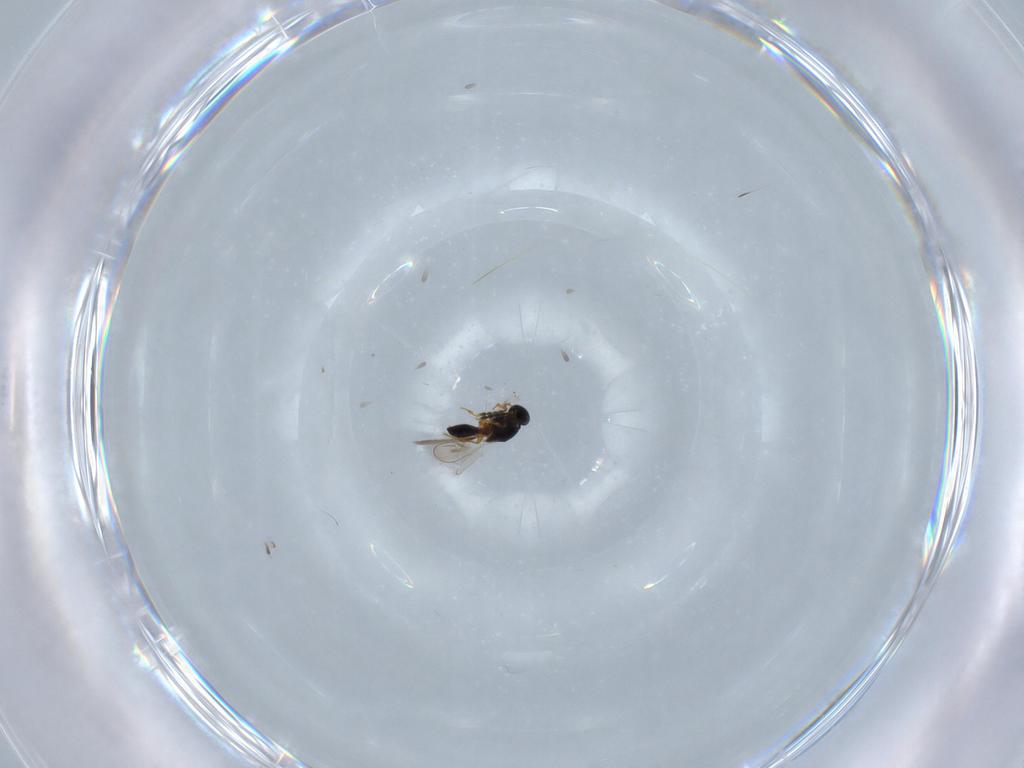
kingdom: Animalia
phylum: Arthropoda
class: Insecta
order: Hymenoptera
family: Platygastridae
